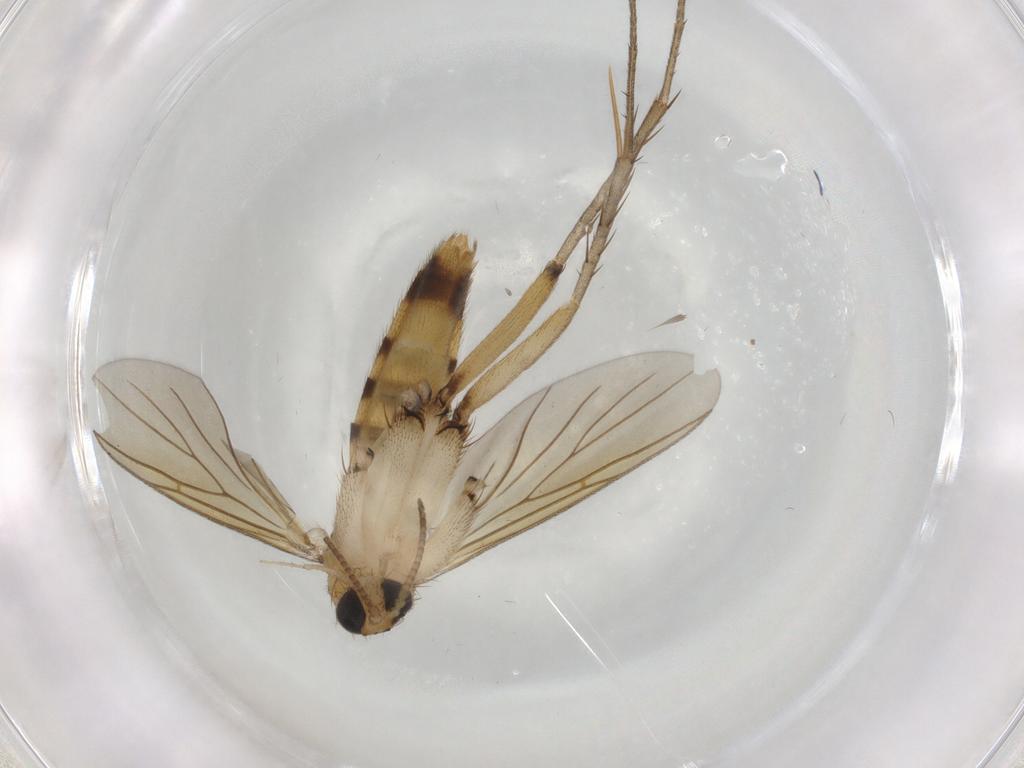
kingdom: Animalia
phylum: Arthropoda
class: Insecta
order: Diptera
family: Mycetophilidae
